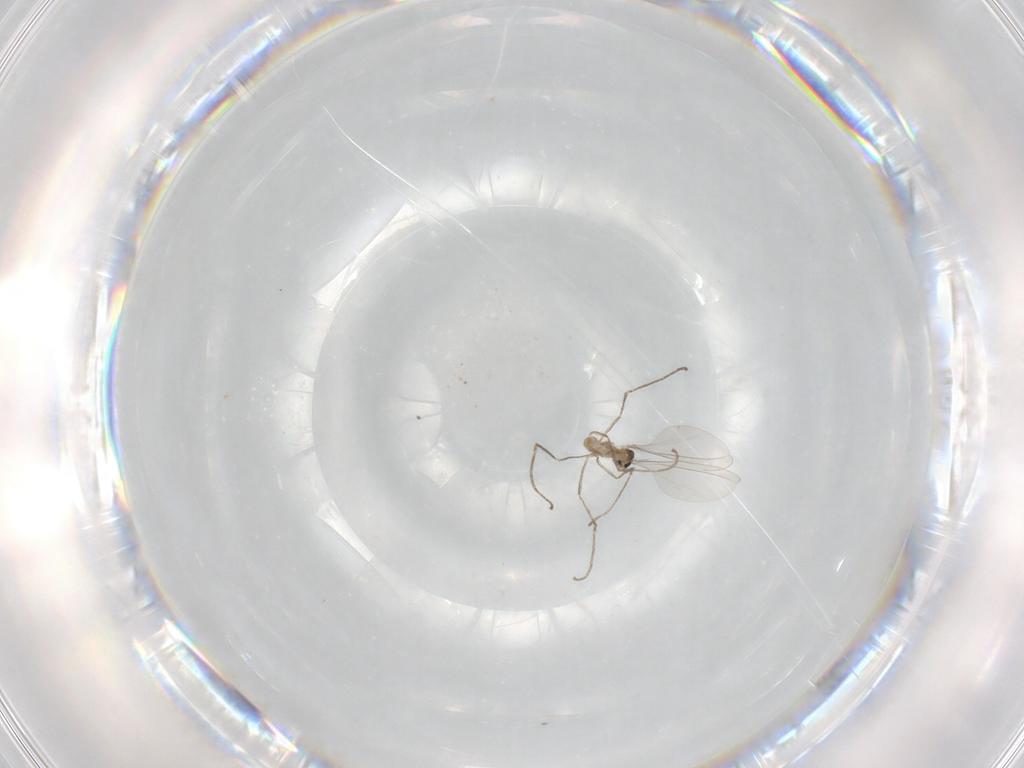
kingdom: Animalia
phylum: Arthropoda
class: Insecta
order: Diptera
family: Cecidomyiidae
